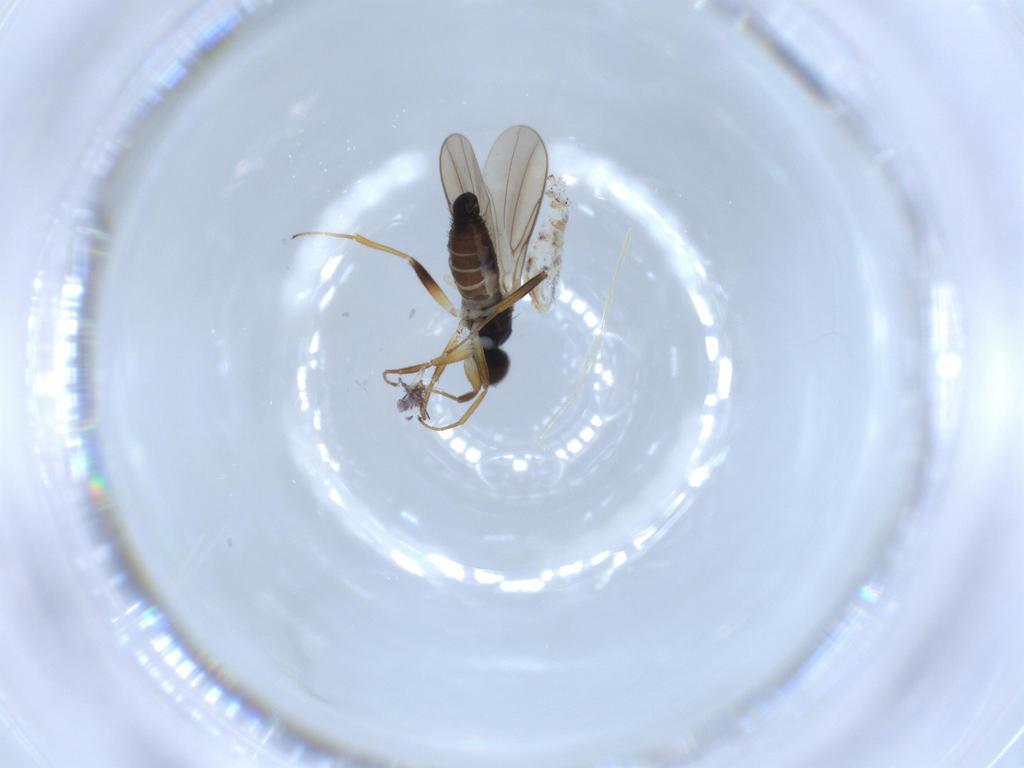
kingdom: Animalia
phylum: Arthropoda
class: Insecta
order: Diptera
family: Hybotidae
